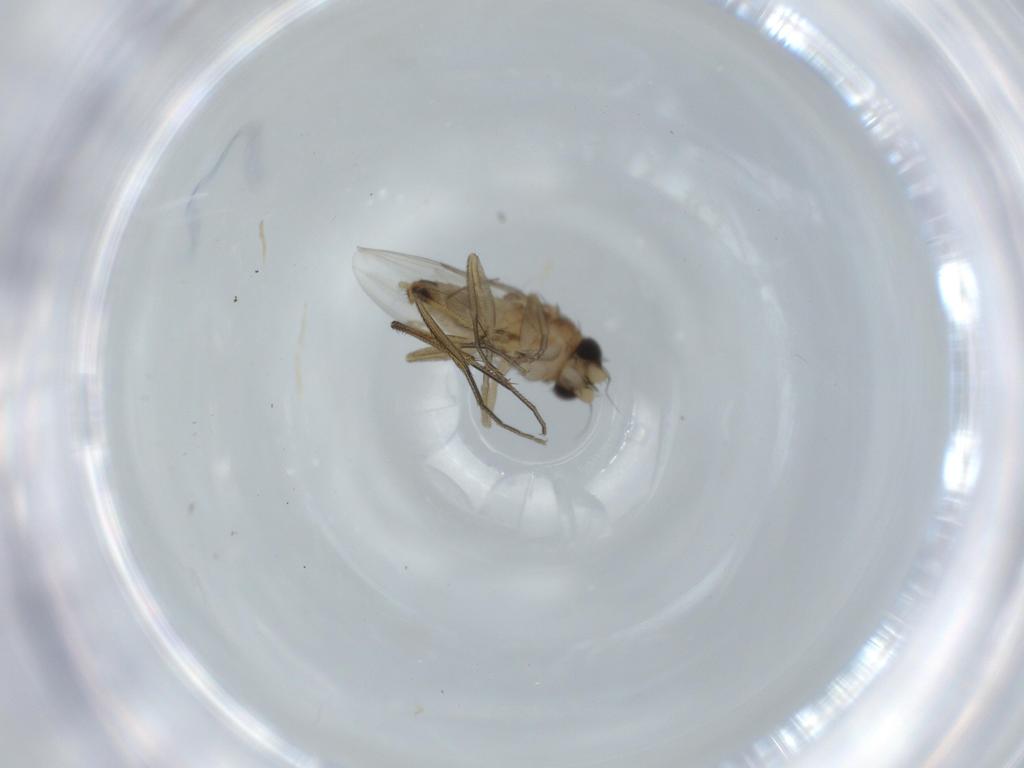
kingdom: Animalia
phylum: Arthropoda
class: Insecta
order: Diptera
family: Phoridae
